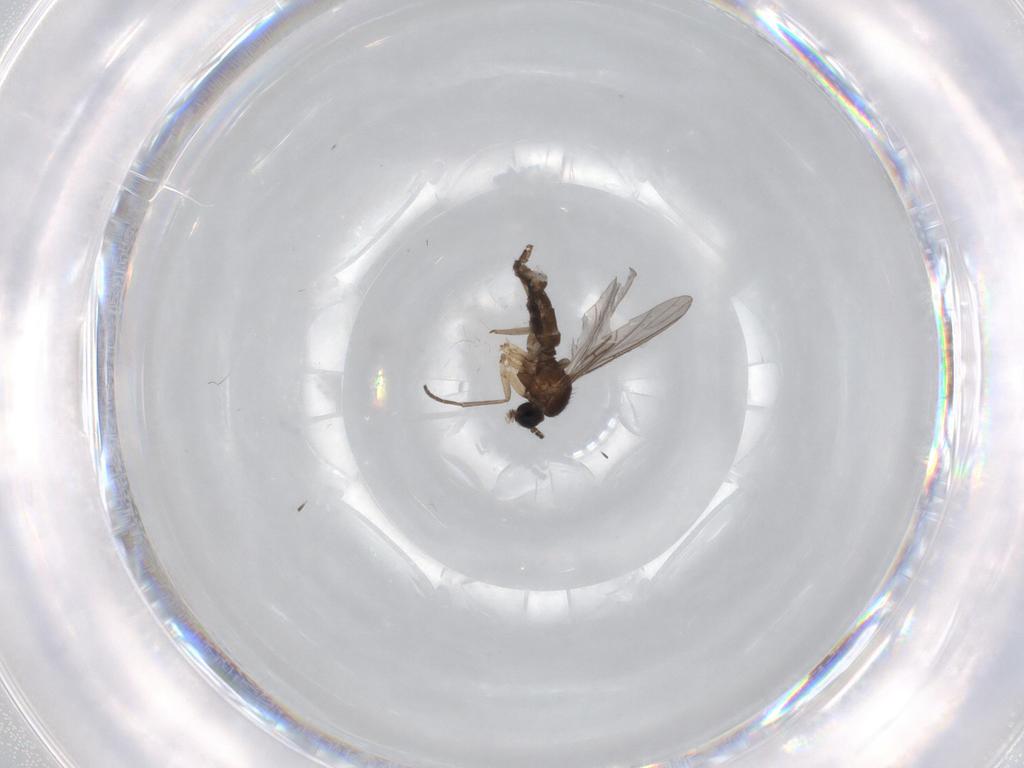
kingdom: Animalia
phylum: Arthropoda
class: Insecta
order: Diptera
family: Sciaridae
